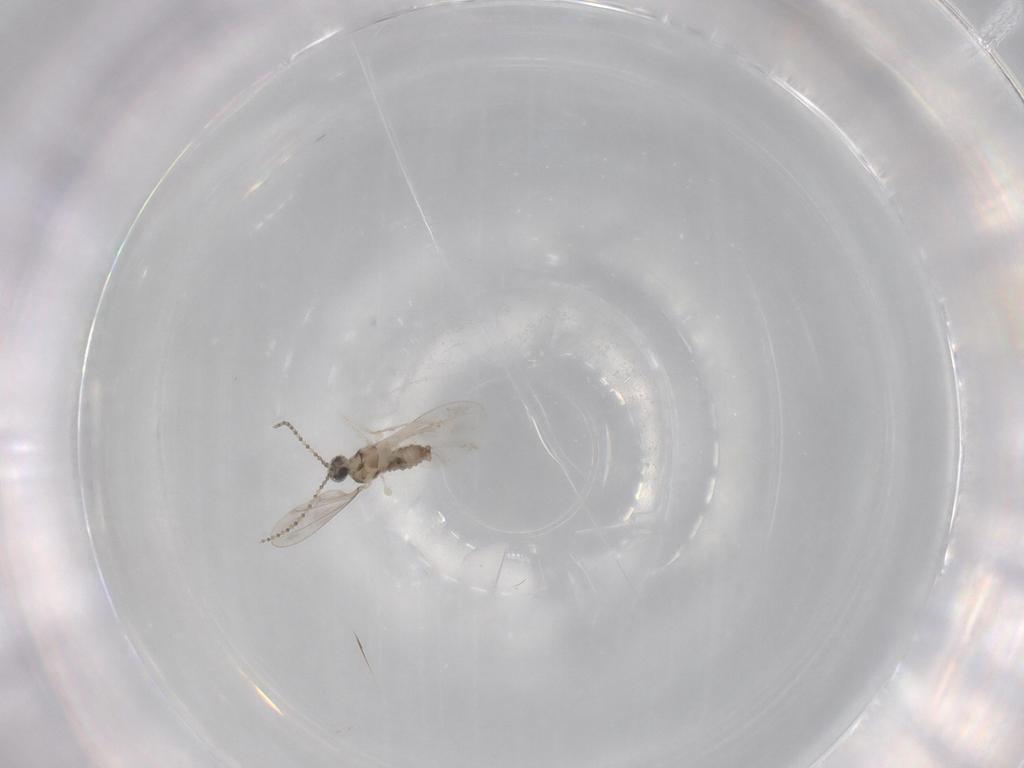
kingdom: Animalia
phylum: Arthropoda
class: Insecta
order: Diptera
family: Cecidomyiidae
